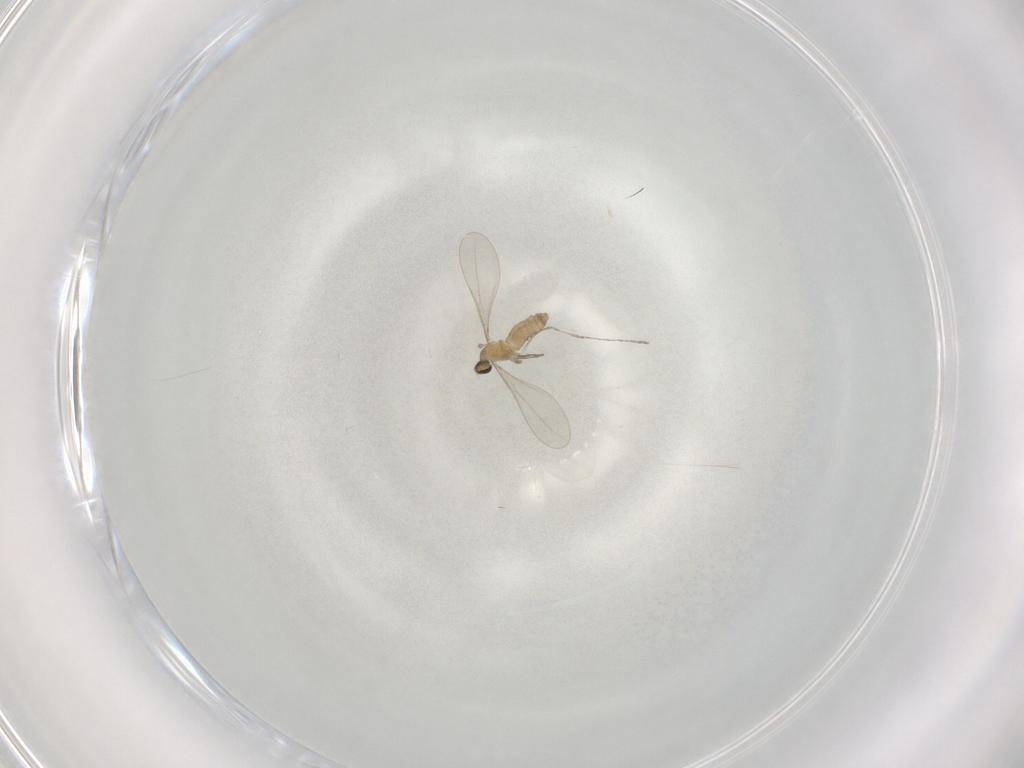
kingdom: Animalia
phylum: Arthropoda
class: Insecta
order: Diptera
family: Cecidomyiidae
